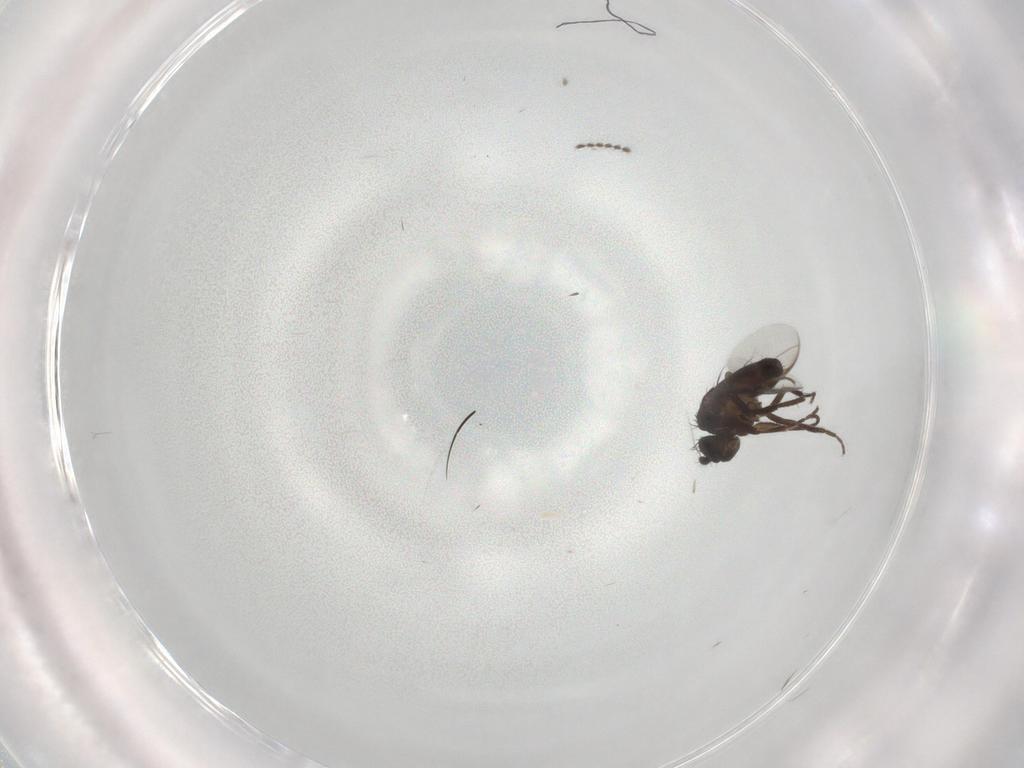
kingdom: Animalia
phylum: Arthropoda
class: Insecta
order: Diptera
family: Sphaeroceridae
